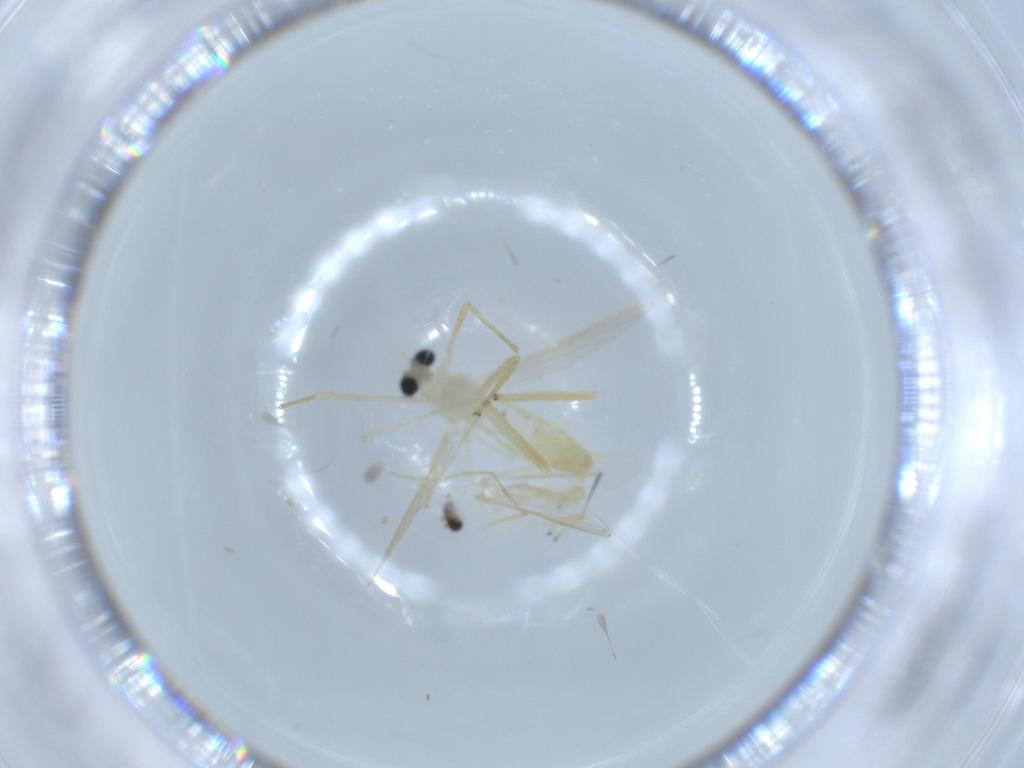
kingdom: Animalia
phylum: Arthropoda
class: Insecta
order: Diptera
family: Chironomidae
